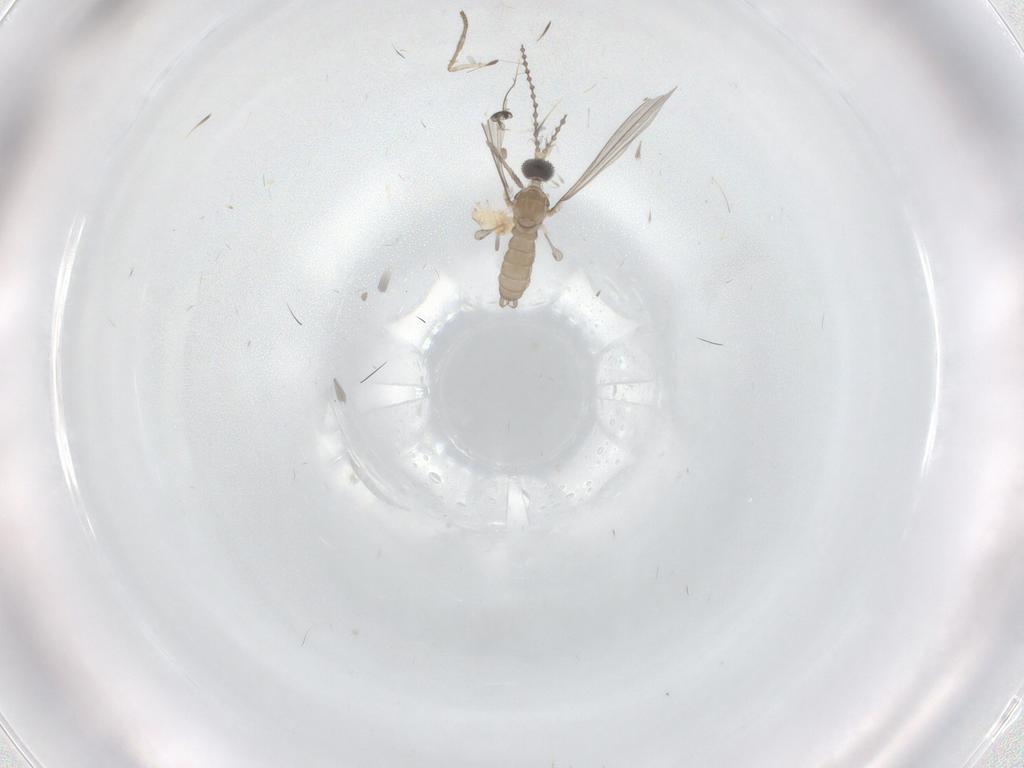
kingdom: Animalia
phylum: Arthropoda
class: Insecta
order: Diptera
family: Cecidomyiidae
